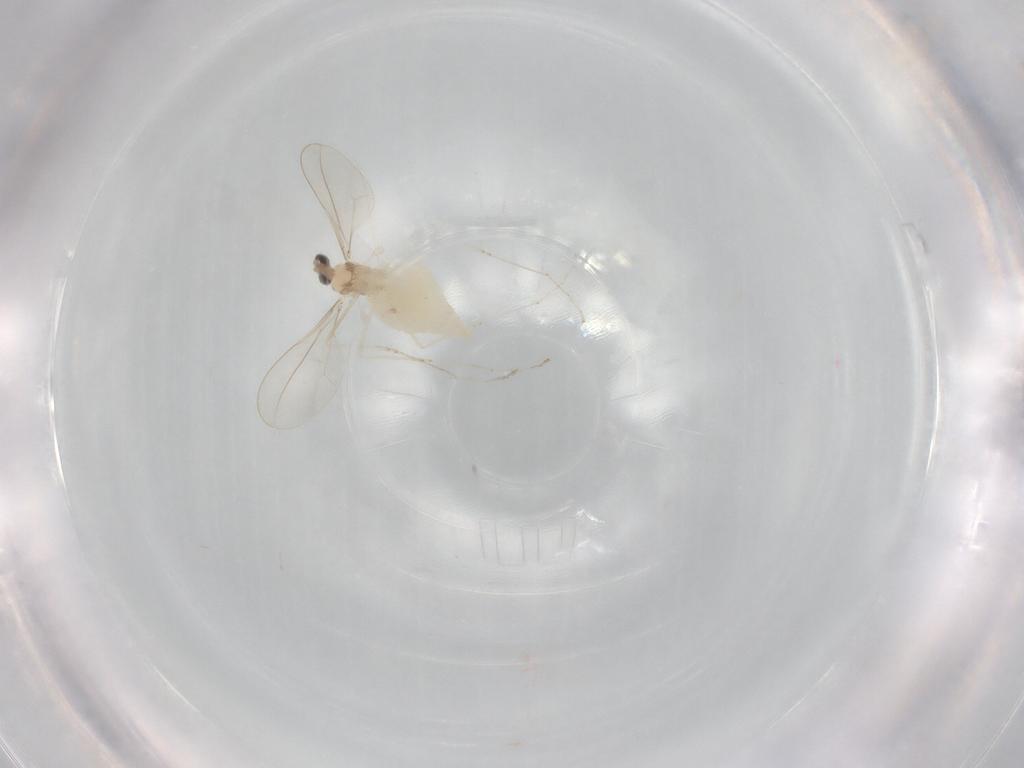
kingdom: Animalia
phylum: Arthropoda
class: Insecta
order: Diptera
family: Cecidomyiidae
